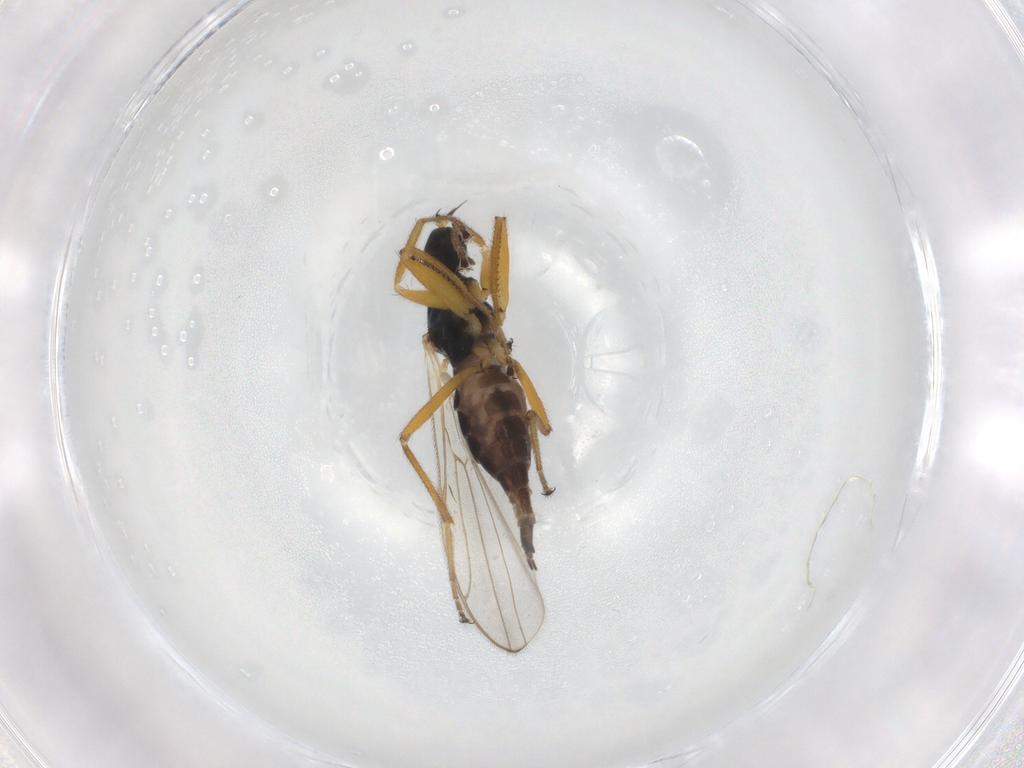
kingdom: Animalia
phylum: Arthropoda
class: Insecta
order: Diptera
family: Hybotidae
